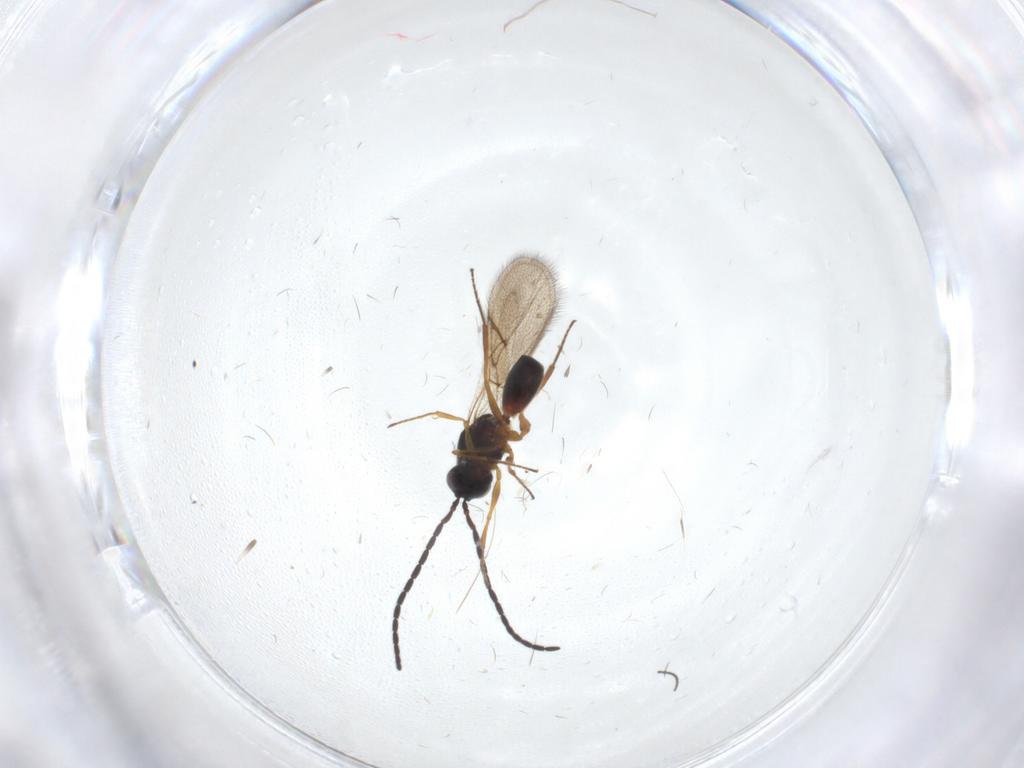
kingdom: Animalia
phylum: Arthropoda
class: Insecta
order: Hymenoptera
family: Figitidae
